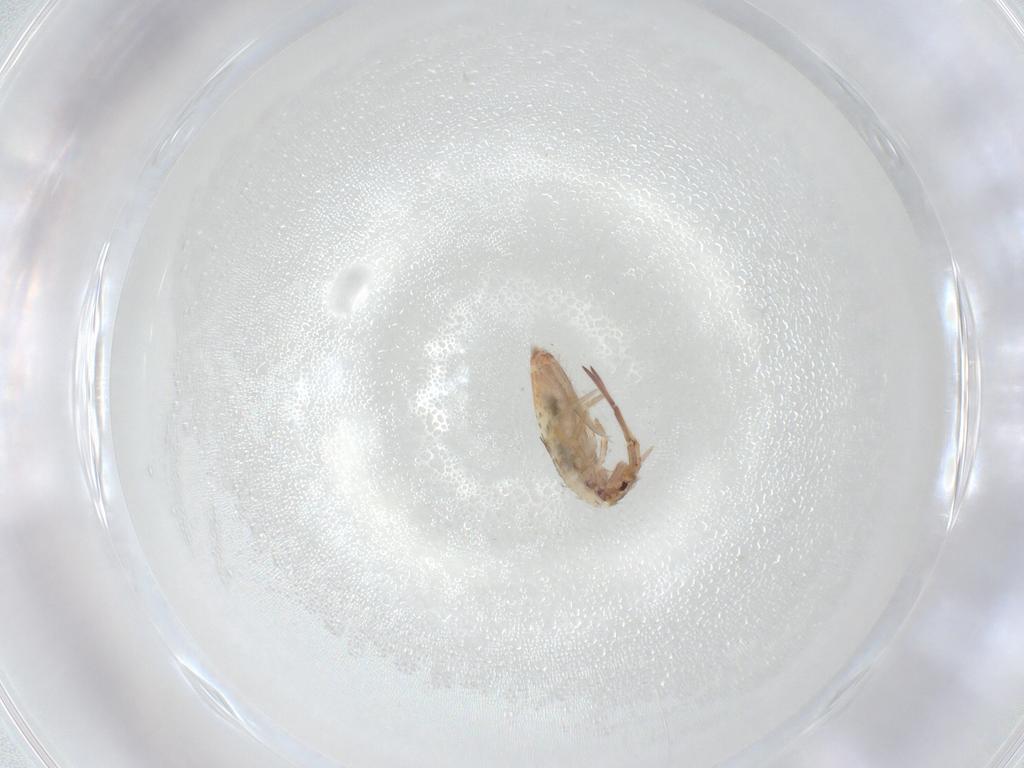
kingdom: Animalia
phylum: Arthropoda
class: Collembola
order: Entomobryomorpha
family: Entomobryidae
